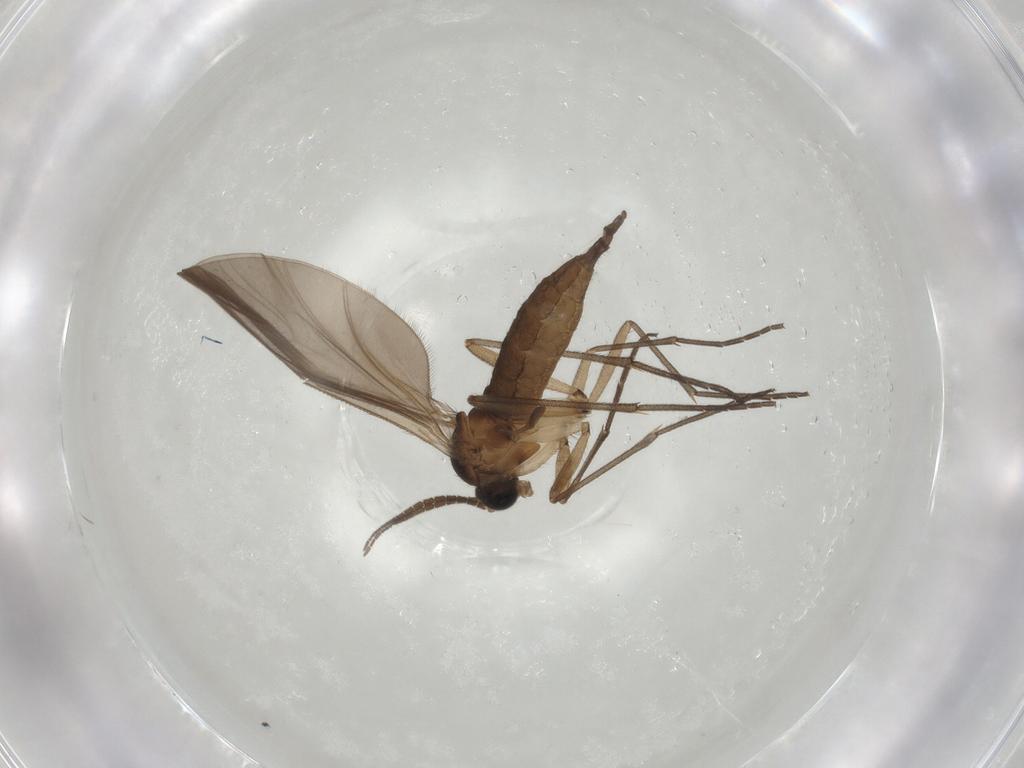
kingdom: Animalia
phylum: Arthropoda
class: Insecta
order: Diptera
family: Sciaridae
